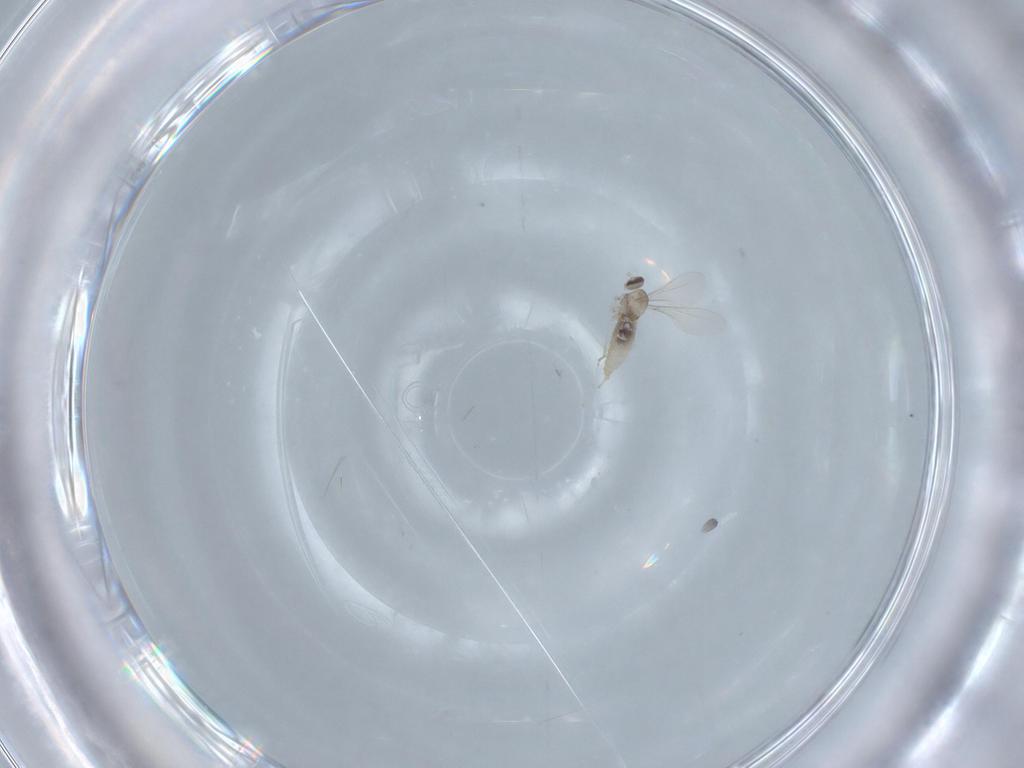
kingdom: Animalia
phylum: Arthropoda
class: Insecta
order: Diptera
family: Cecidomyiidae
